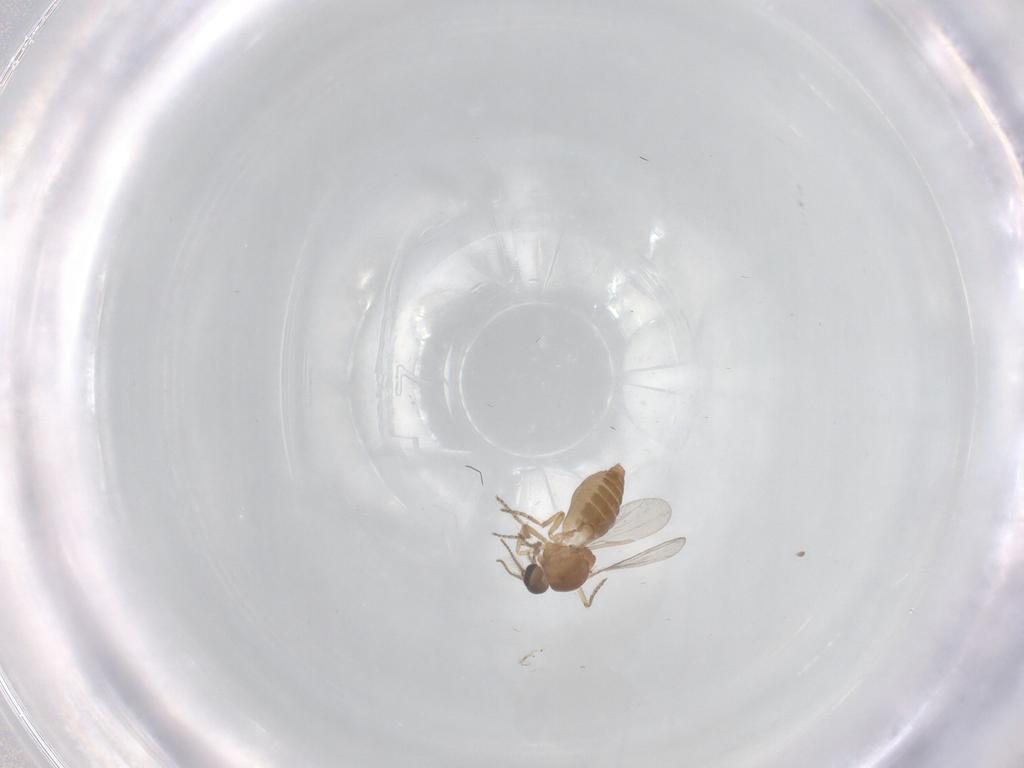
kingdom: Animalia
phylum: Arthropoda
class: Insecta
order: Diptera
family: Ceratopogonidae
